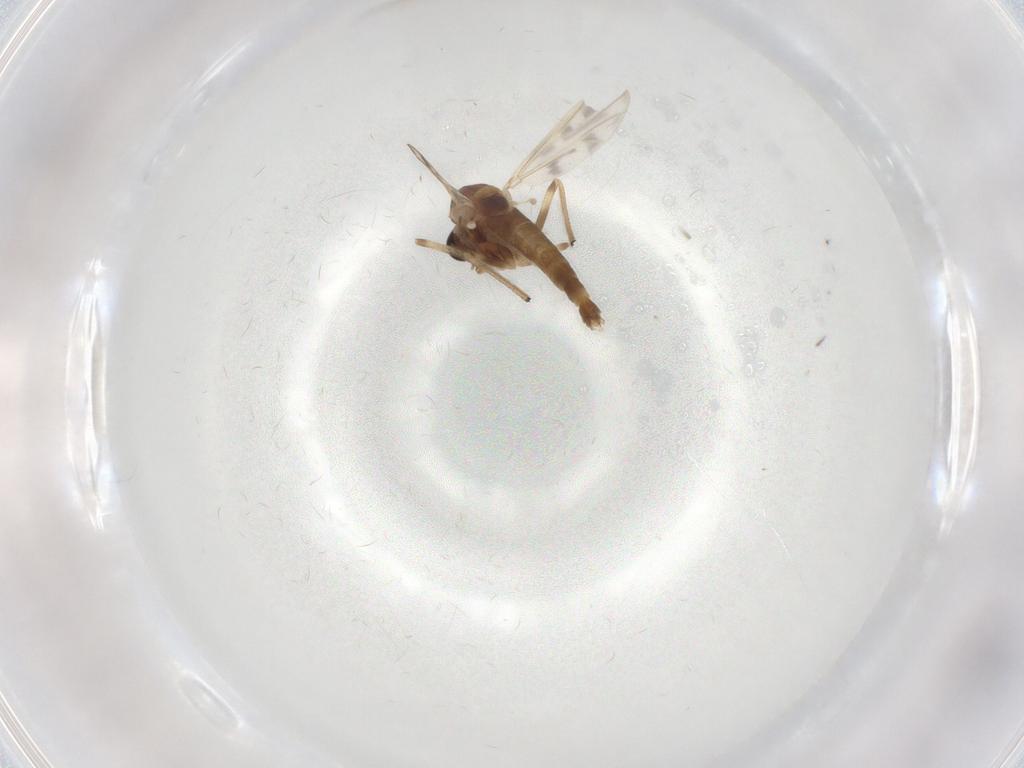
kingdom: Animalia
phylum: Arthropoda
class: Insecta
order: Diptera
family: Chironomidae
